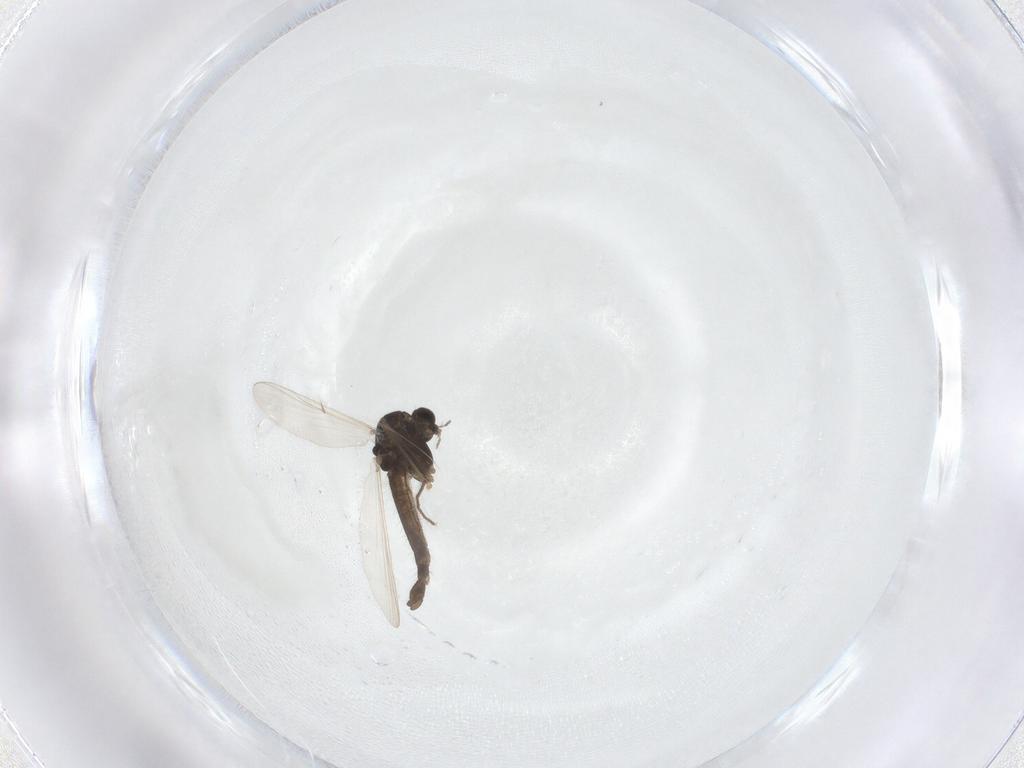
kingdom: Animalia
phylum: Arthropoda
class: Insecta
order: Diptera
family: Chironomidae
